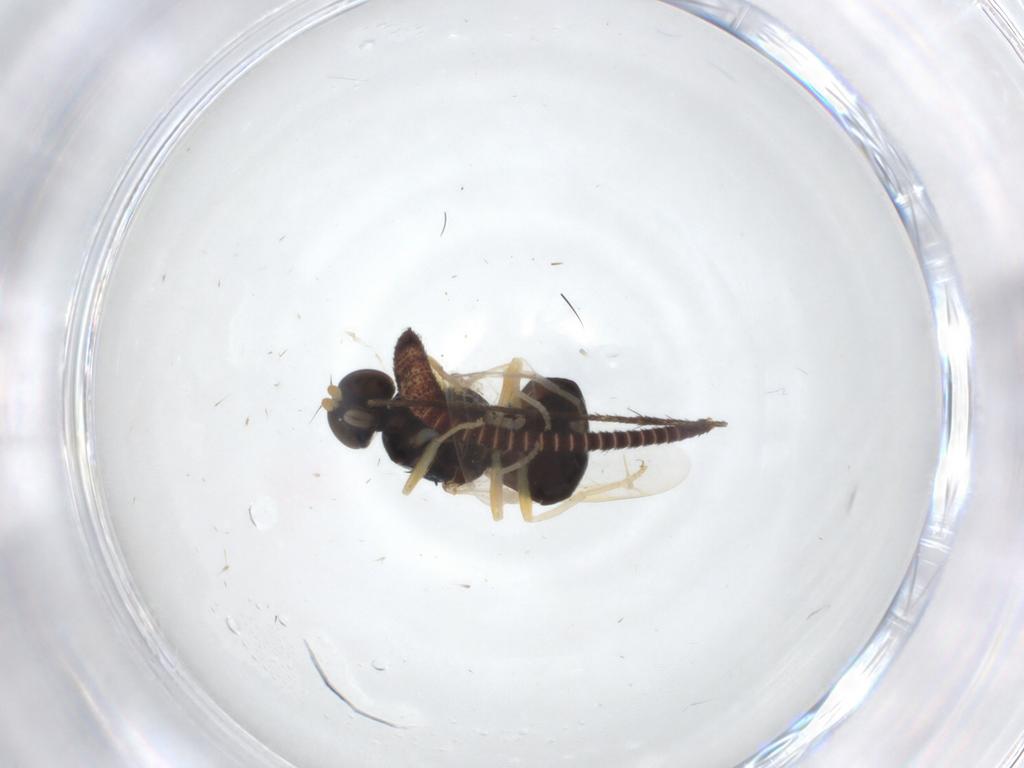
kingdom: Animalia
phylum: Arthropoda
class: Insecta
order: Diptera
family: Stratiomyidae
